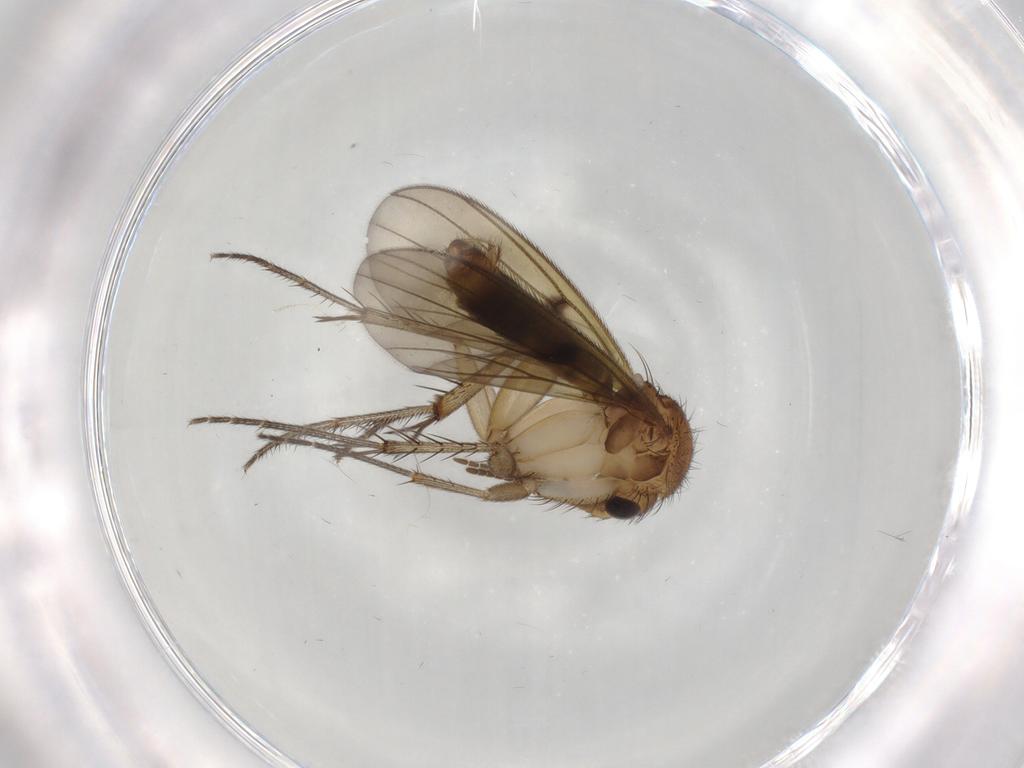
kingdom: Animalia
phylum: Arthropoda
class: Insecta
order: Diptera
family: Cecidomyiidae
